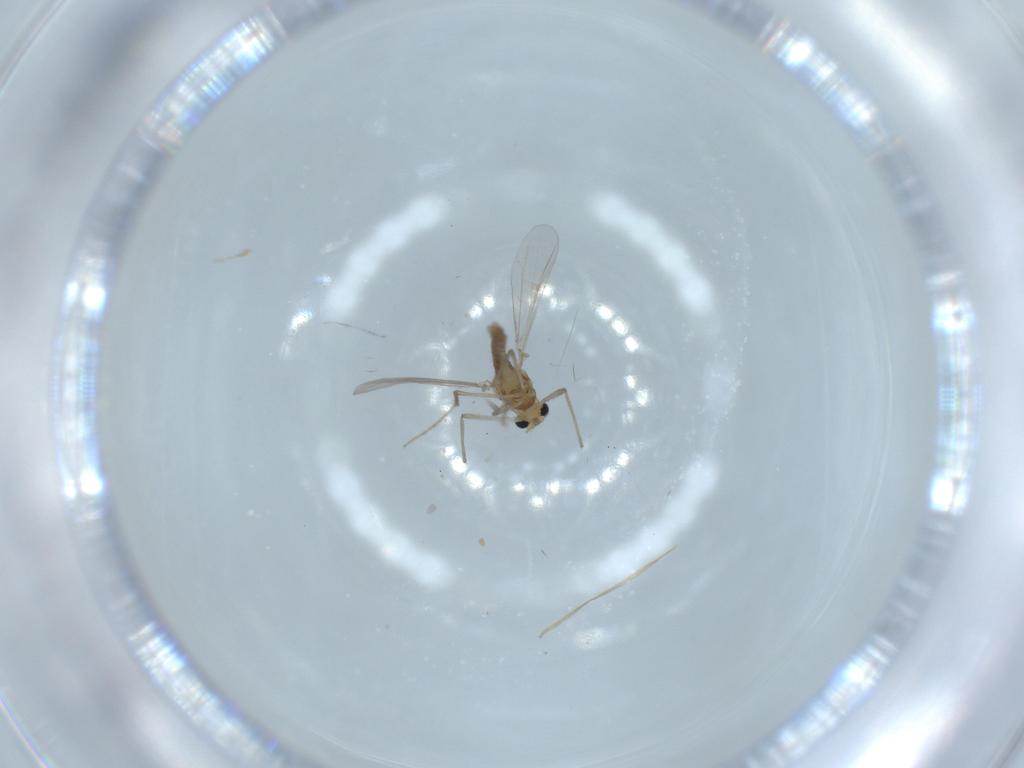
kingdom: Animalia
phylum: Arthropoda
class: Insecta
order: Diptera
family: Chironomidae
